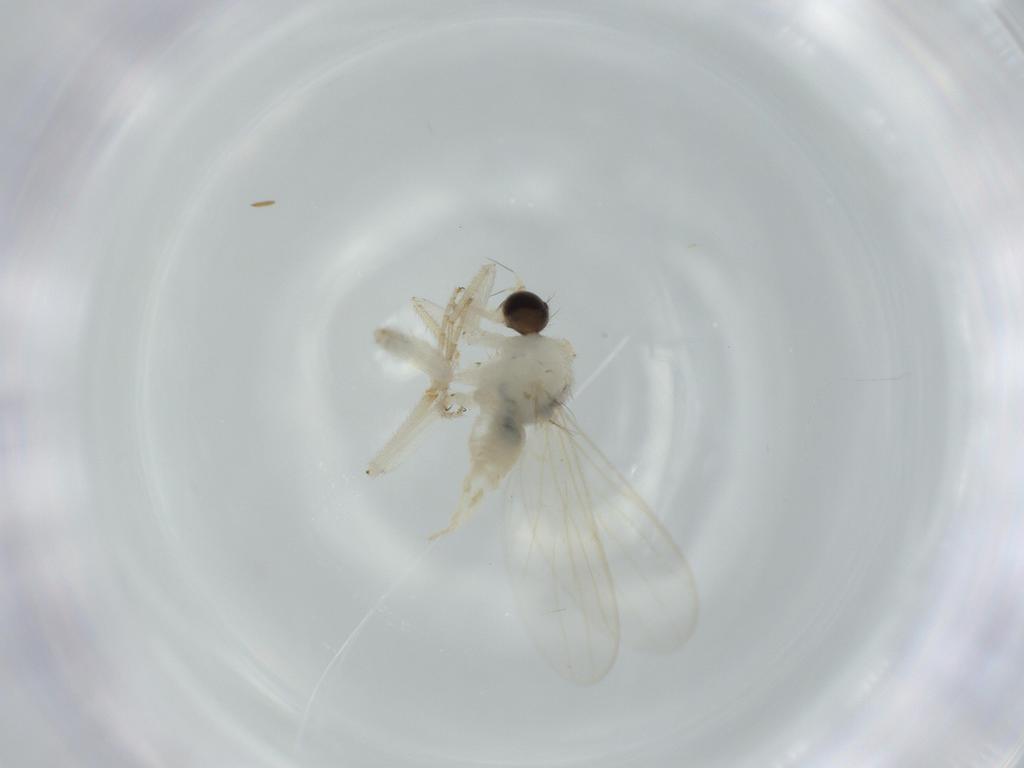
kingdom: Animalia
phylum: Arthropoda
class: Insecta
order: Diptera
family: Hybotidae
